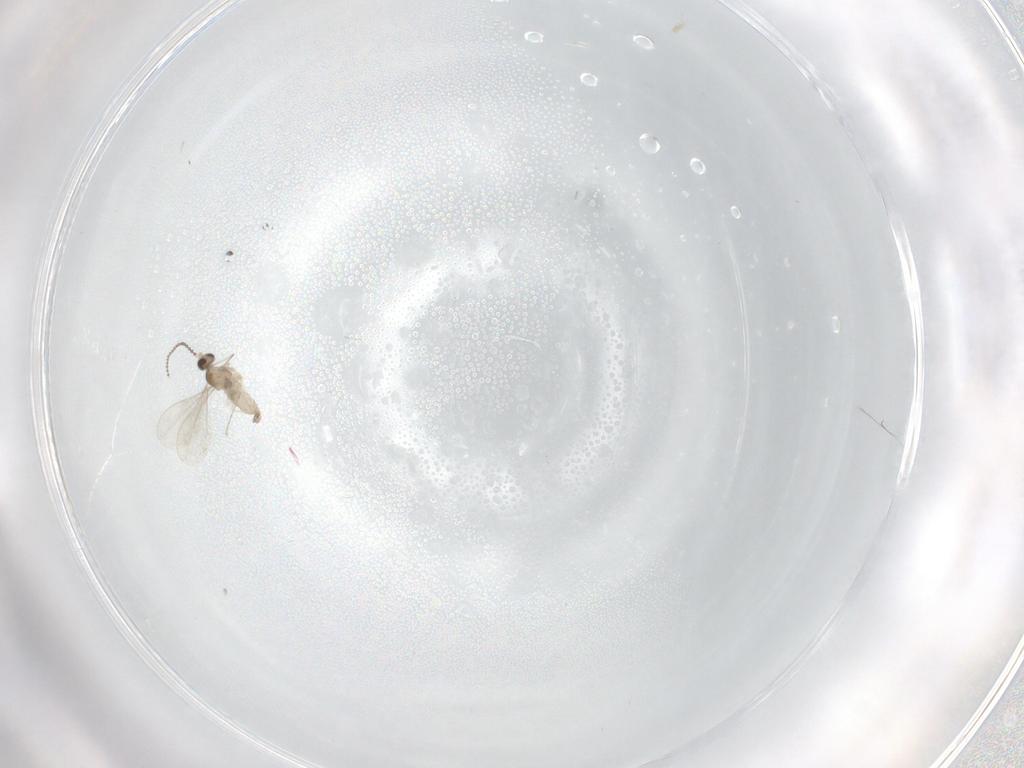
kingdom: Animalia
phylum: Arthropoda
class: Insecta
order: Diptera
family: Cecidomyiidae
